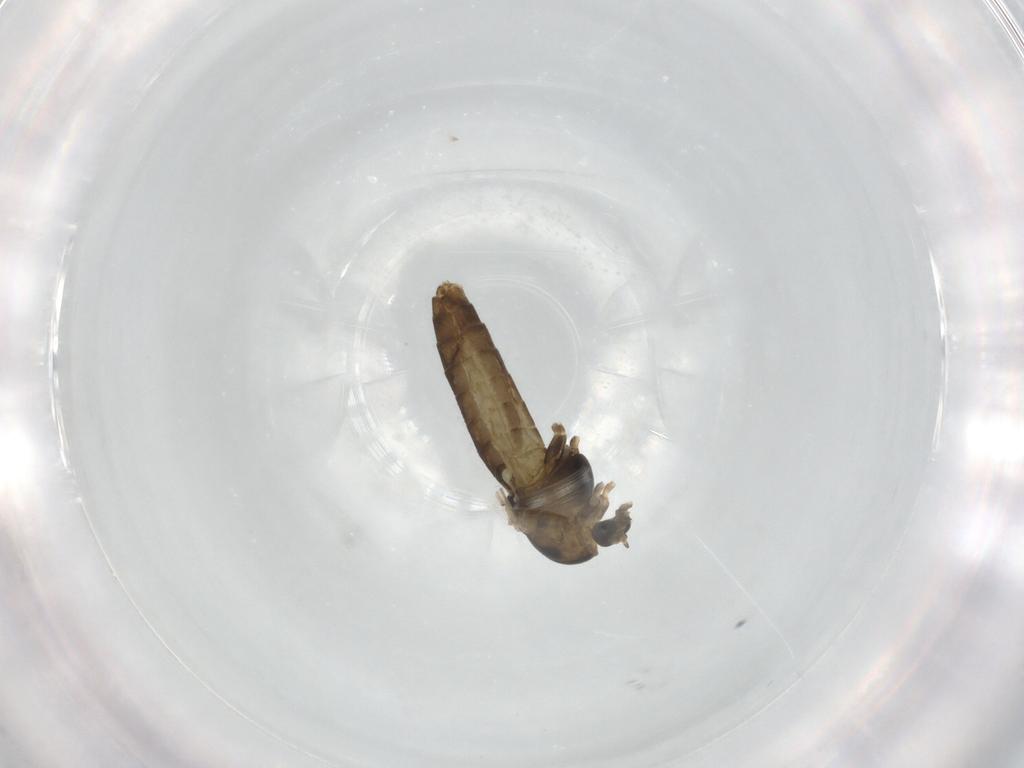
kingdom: Animalia
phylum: Arthropoda
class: Insecta
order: Diptera
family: Chironomidae
